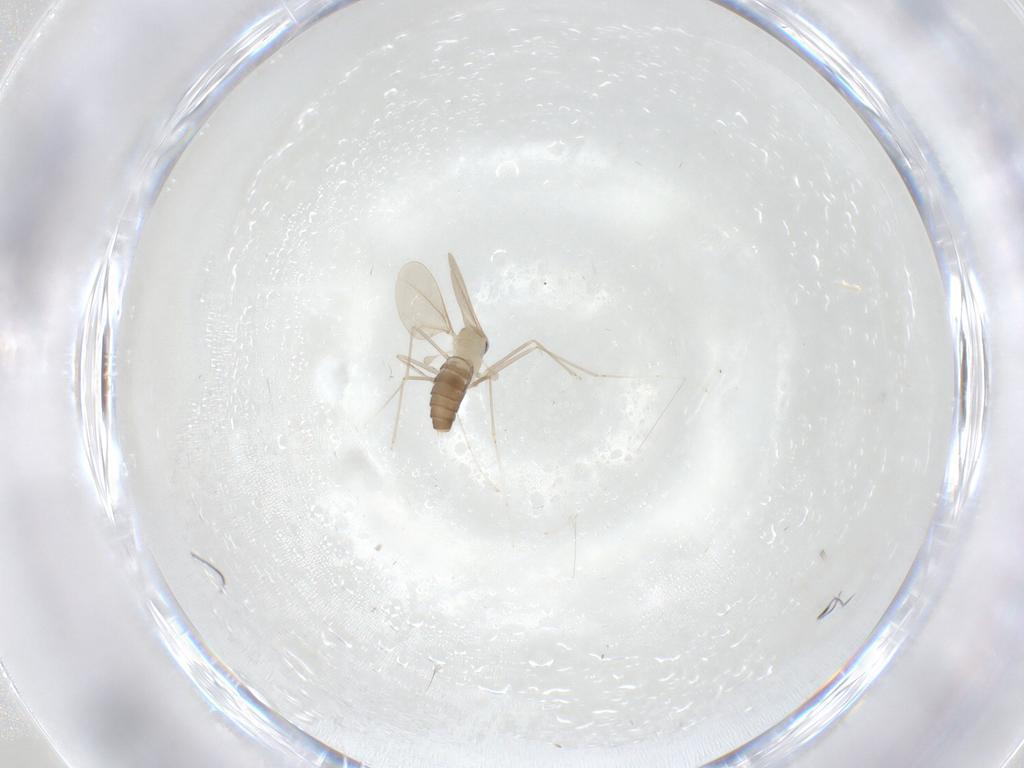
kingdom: Animalia
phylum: Arthropoda
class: Insecta
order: Diptera
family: Cecidomyiidae
